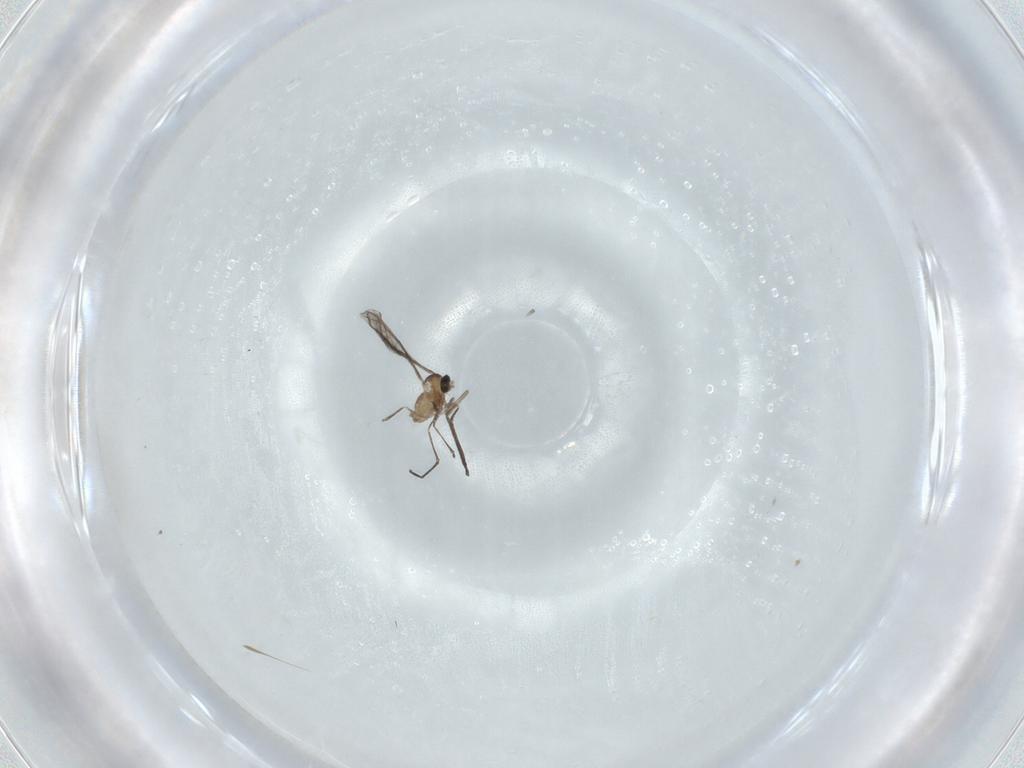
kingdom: Animalia
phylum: Arthropoda
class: Insecta
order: Diptera
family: Cecidomyiidae
